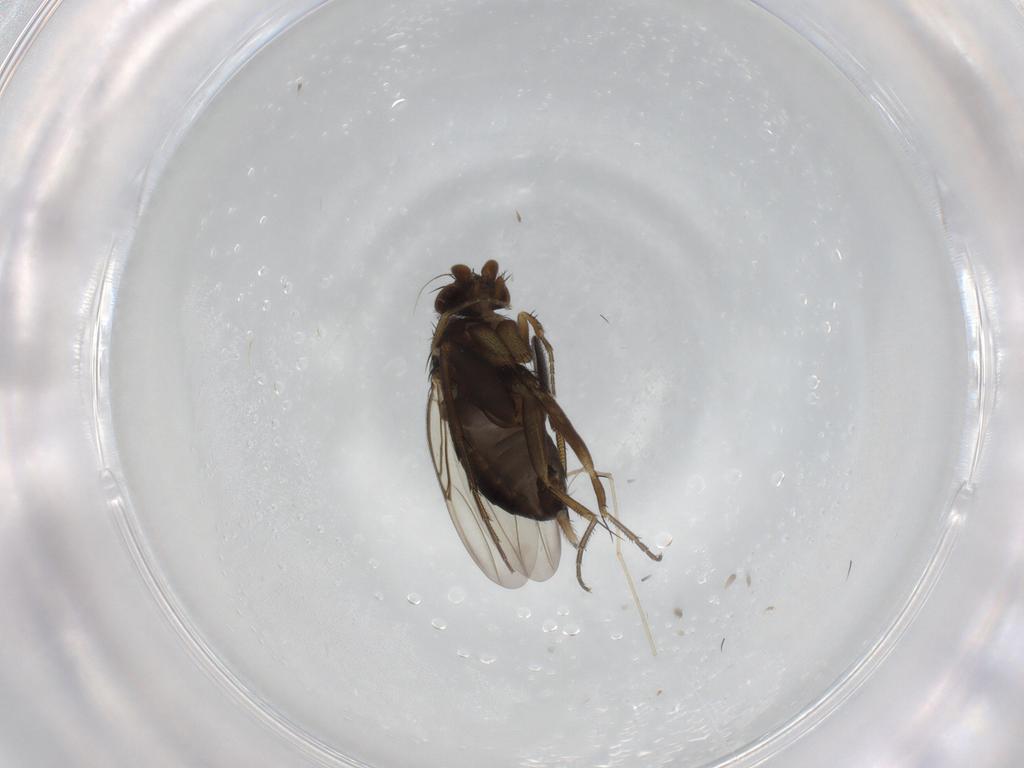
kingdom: Animalia
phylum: Arthropoda
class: Insecta
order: Diptera
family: Phoridae
